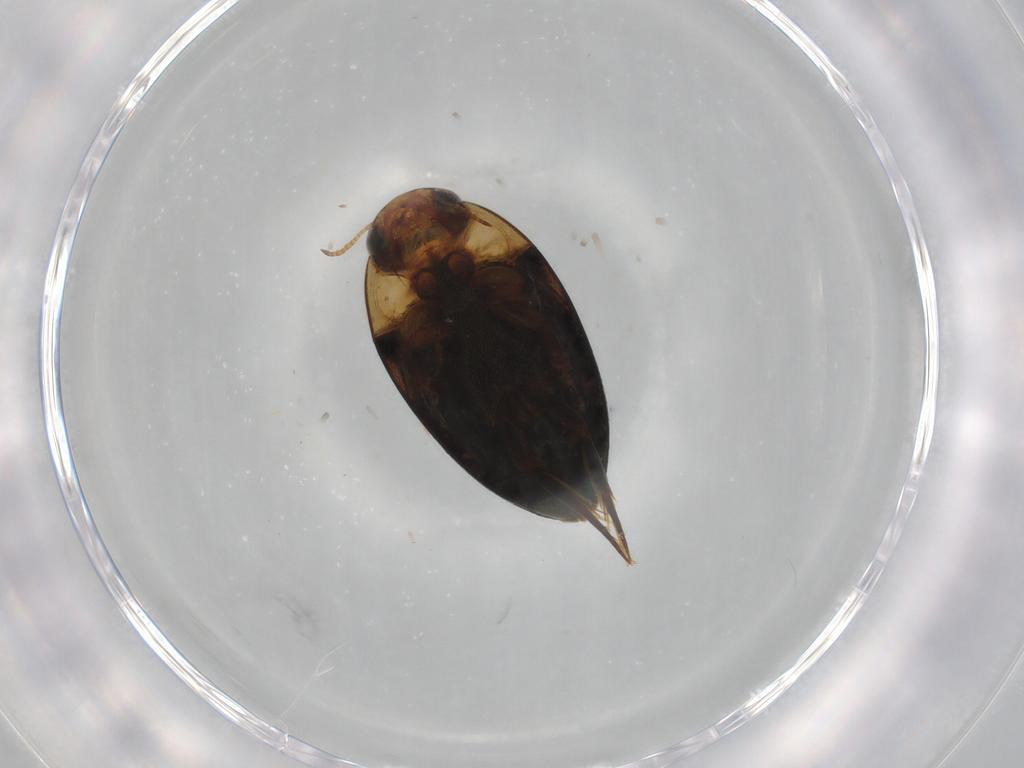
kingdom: Animalia
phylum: Arthropoda
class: Insecta
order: Coleoptera
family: Noteridae
